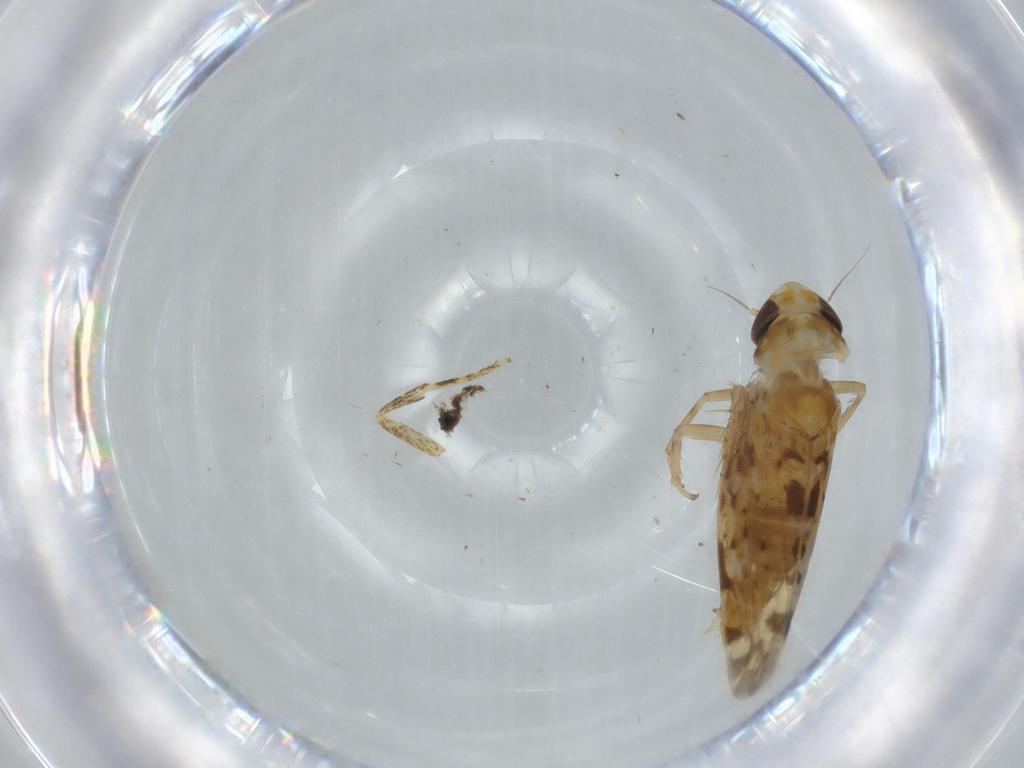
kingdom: Animalia
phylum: Arthropoda
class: Insecta
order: Hemiptera
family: Cicadellidae
